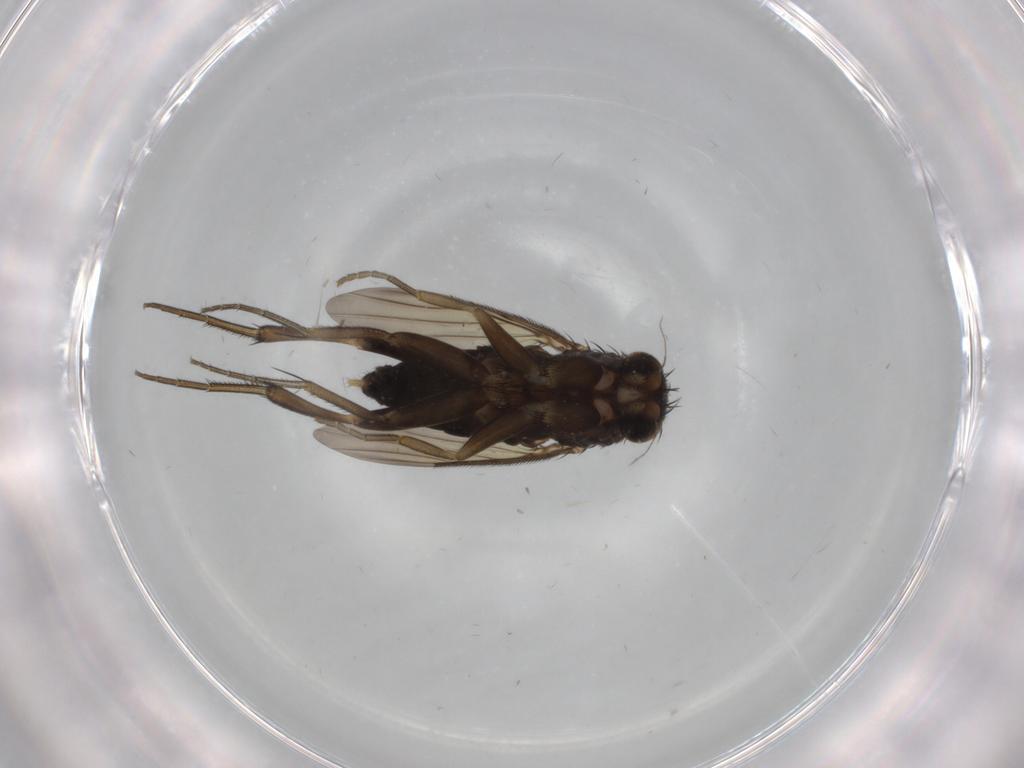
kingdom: Animalia
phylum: Arthropoda
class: Insecta
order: Diptera
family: Phoridae
